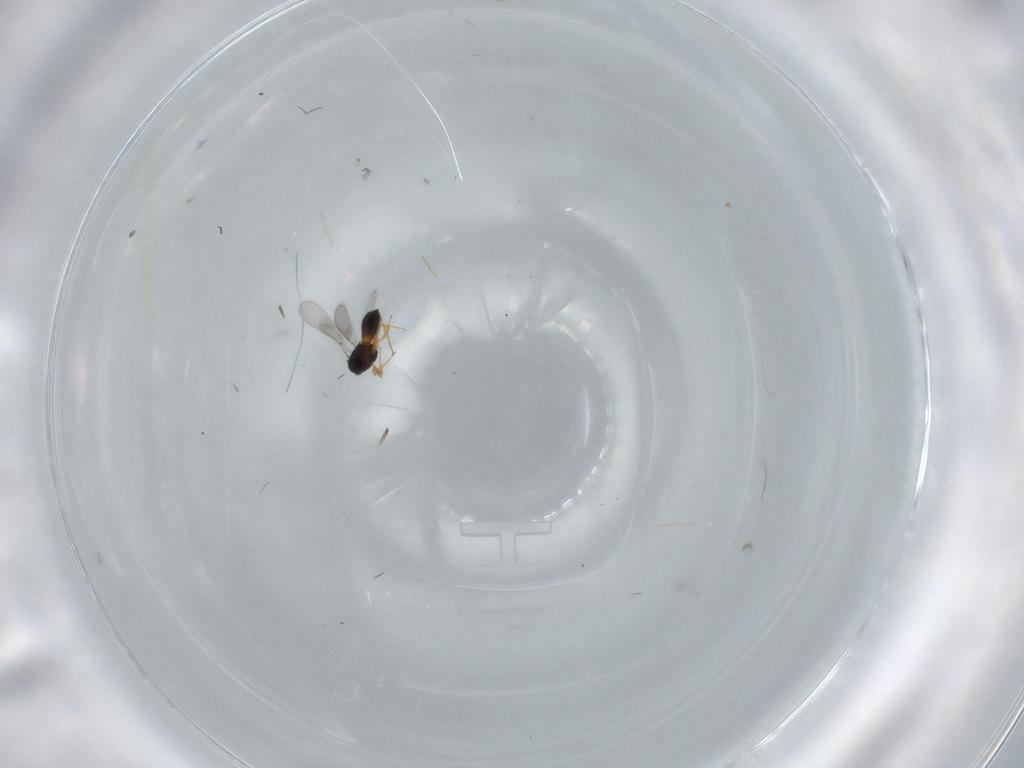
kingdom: Animalia
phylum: Arthropoda
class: Insecta
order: Hymenoptera
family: Scelionidae
